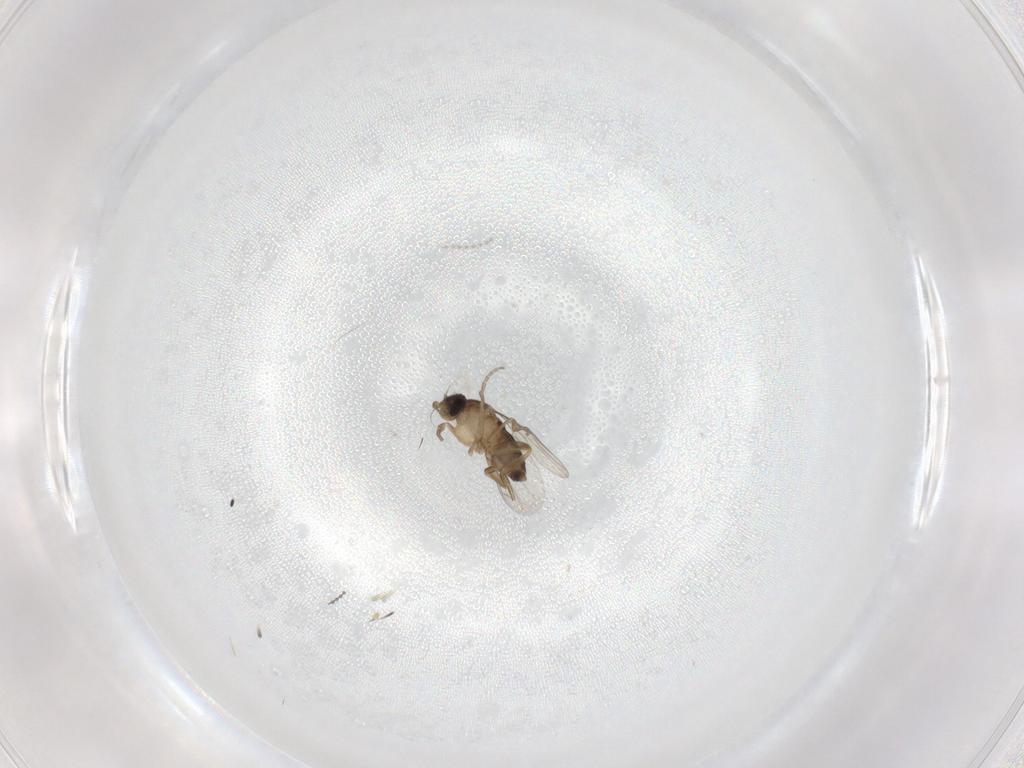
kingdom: Animalia
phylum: Arthropoda
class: Insecta
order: Diptera
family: Phoridae
